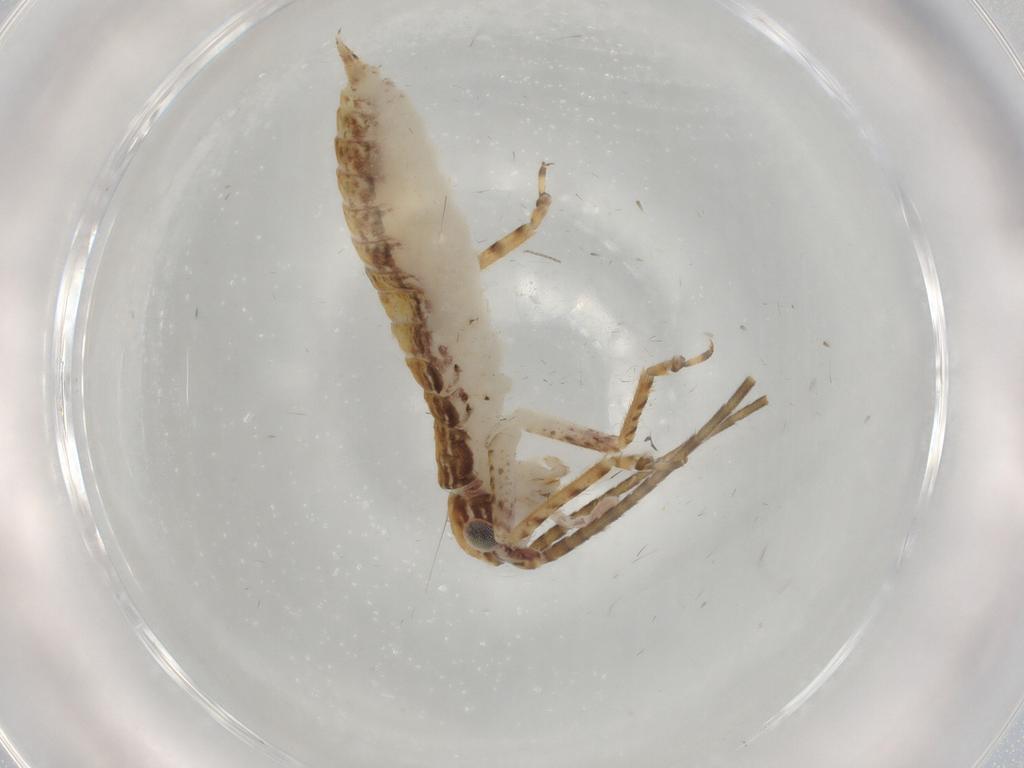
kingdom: Animalia
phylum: Arthropoda
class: Insecta
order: Orthoptera
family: Gryllidae
